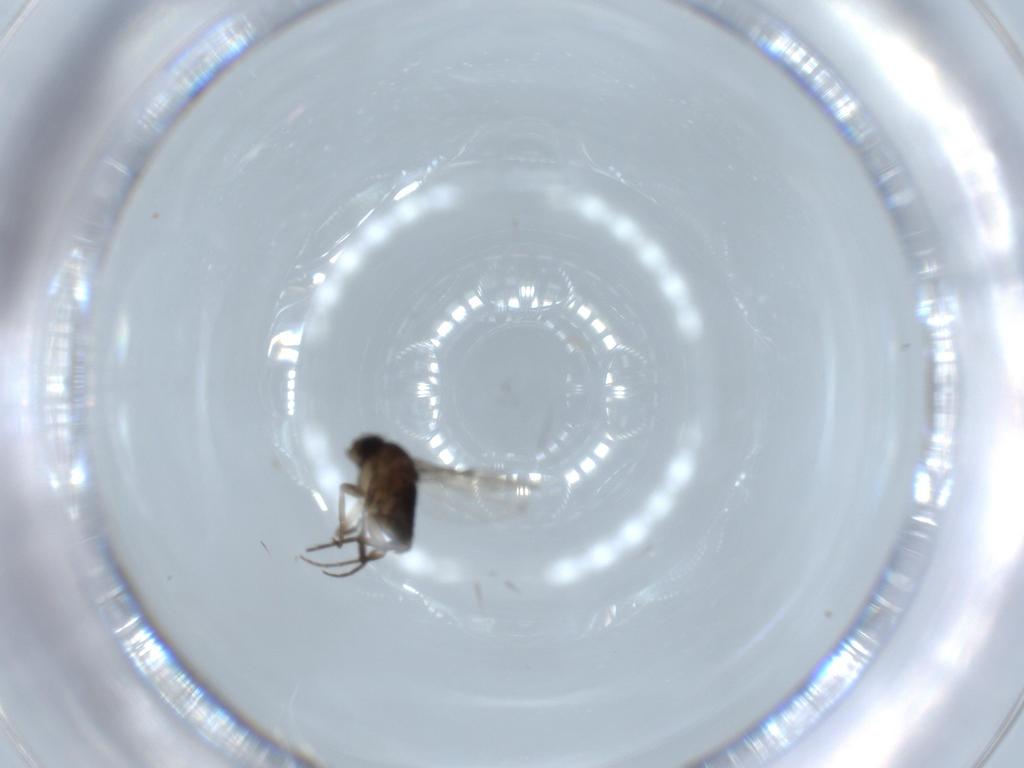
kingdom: Animalia
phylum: Arthropoda
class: Insecta
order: Diptera
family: Phoridae
